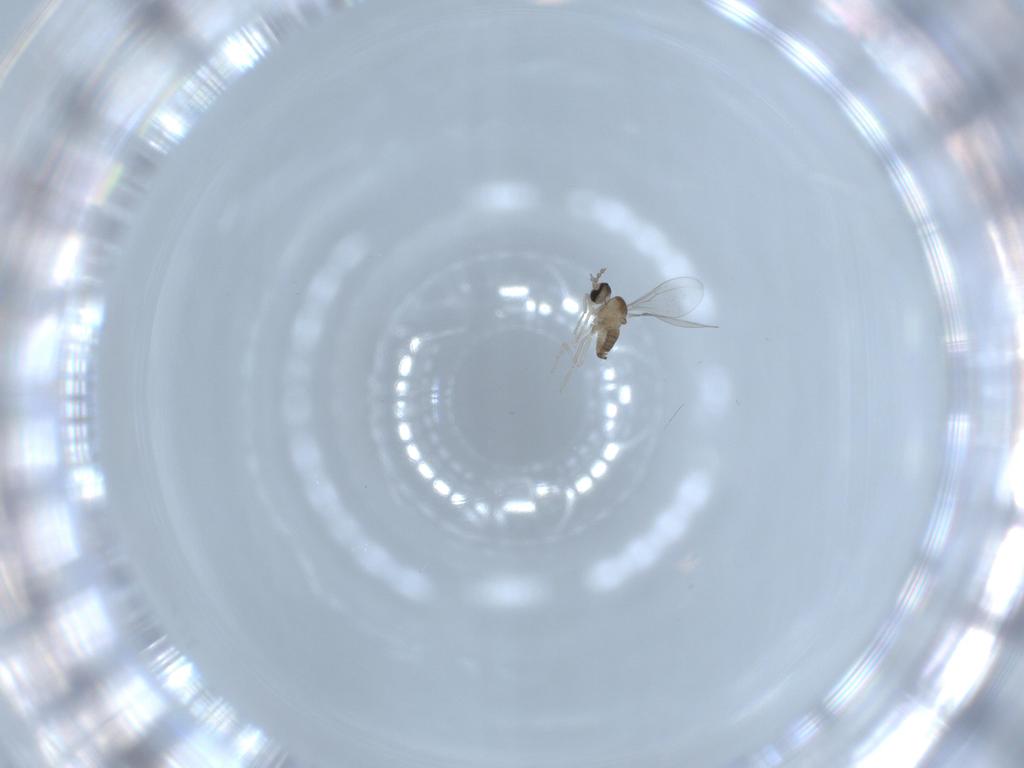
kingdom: Animalia
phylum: Arthropoda
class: Insecta
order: Diptera
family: Cecidomyiidae
